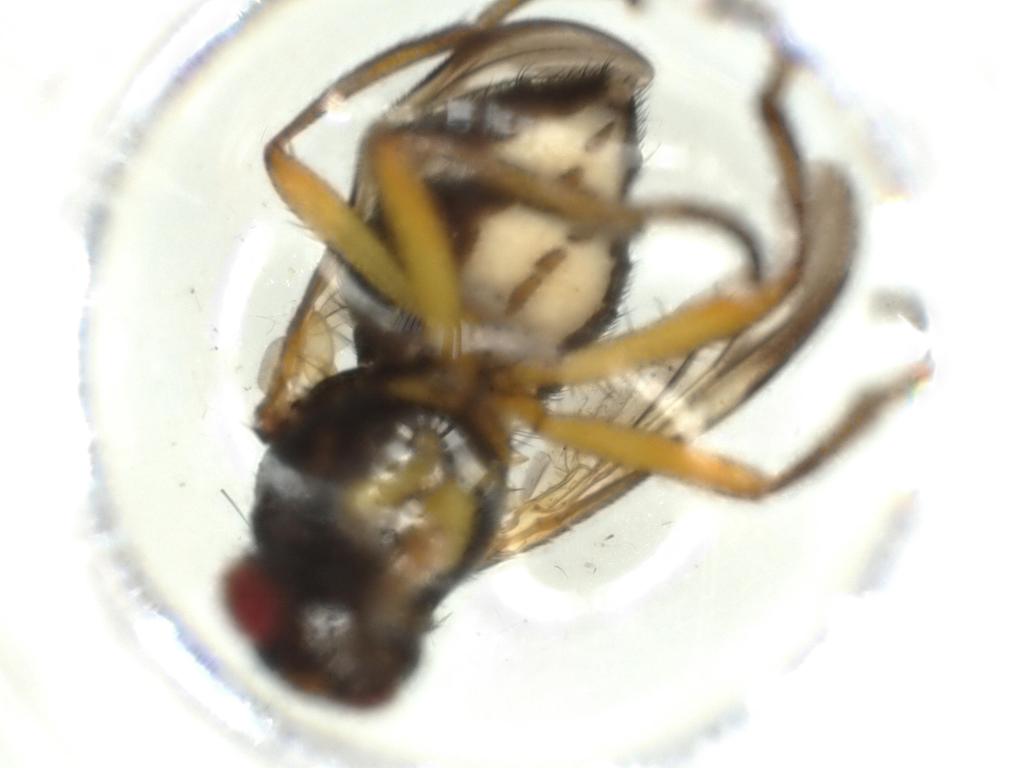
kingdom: Animalia
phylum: Arthropoda
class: Insecta
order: Diptera
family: Calliphoridae
